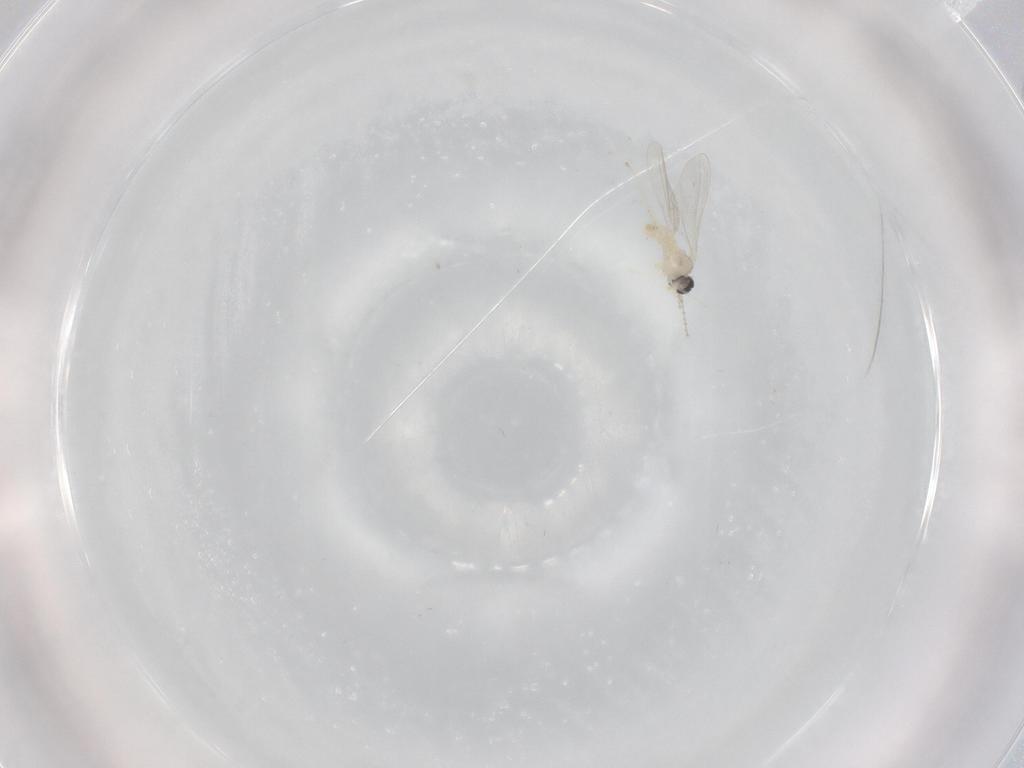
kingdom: Animalia
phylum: Arthropoda
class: Insecta
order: Diptera
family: Cecidomyiidae
